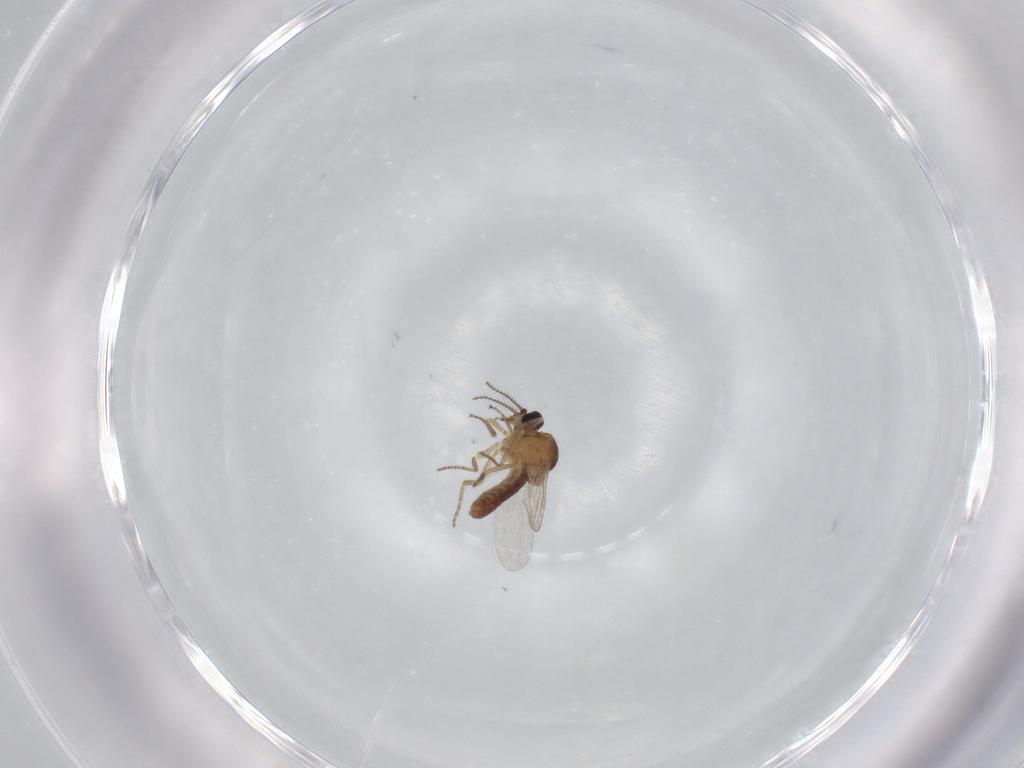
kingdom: Animalia
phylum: Arthropoda
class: Insecta
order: Diptera
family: Ceratopogonidae
